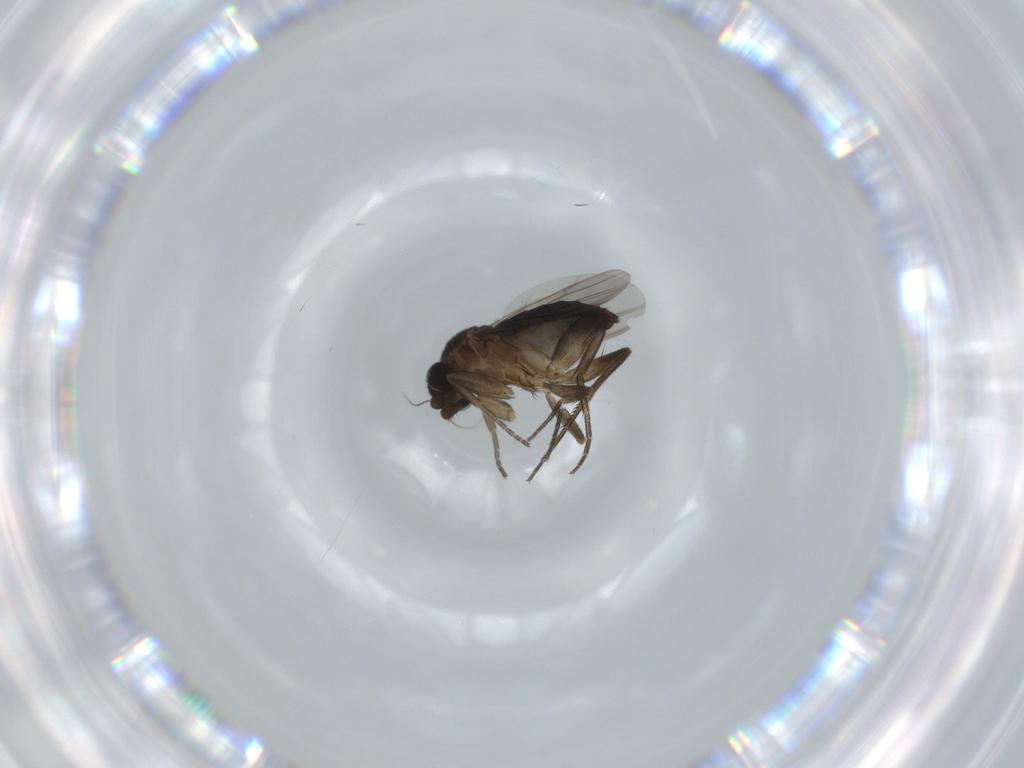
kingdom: Animalia
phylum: Arthropoda
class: Insecta
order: Diptera
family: Phoridae
